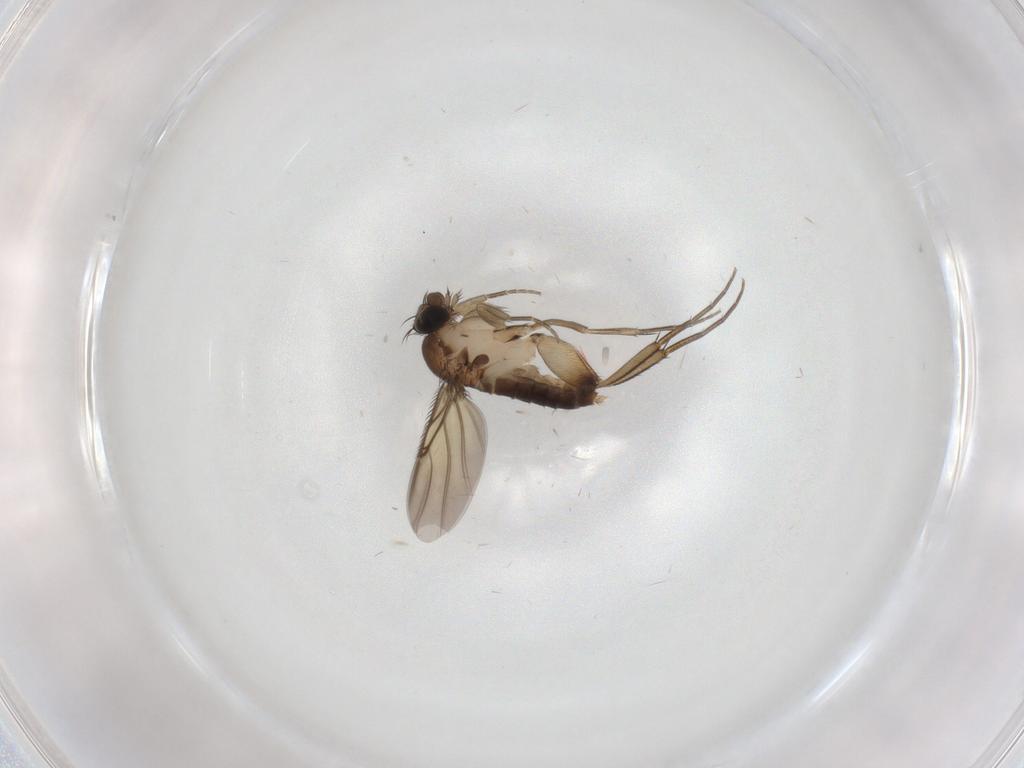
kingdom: Animalia
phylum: Arthropoda
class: Insecta
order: Diptera
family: Phoridae
